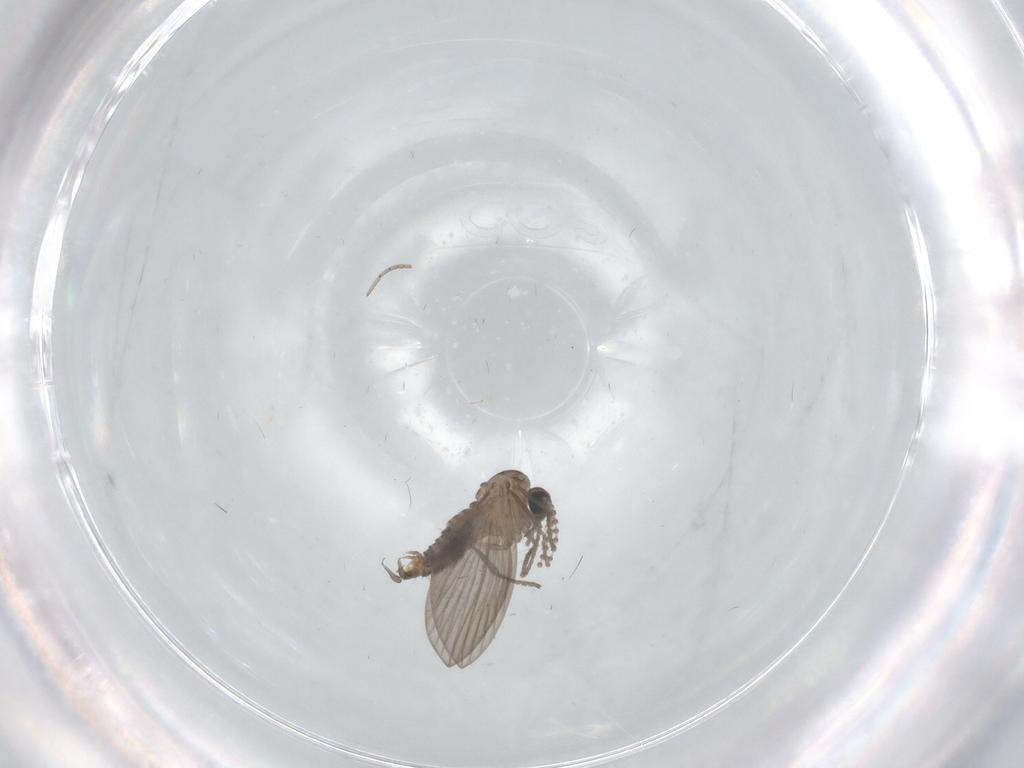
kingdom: Animalia
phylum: Arthropoda
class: Insecta
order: Diptera
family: Psychodidae
